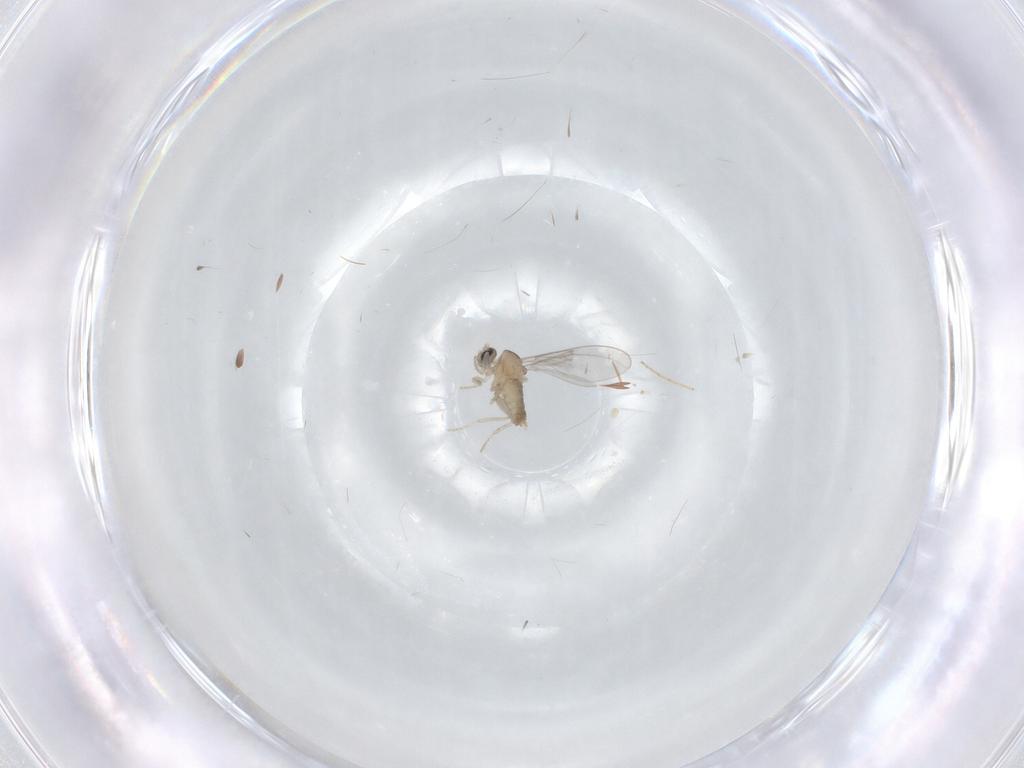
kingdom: Animalia
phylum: Arthropoda
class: Insecta
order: Diptera
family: Cecidomyiidae
